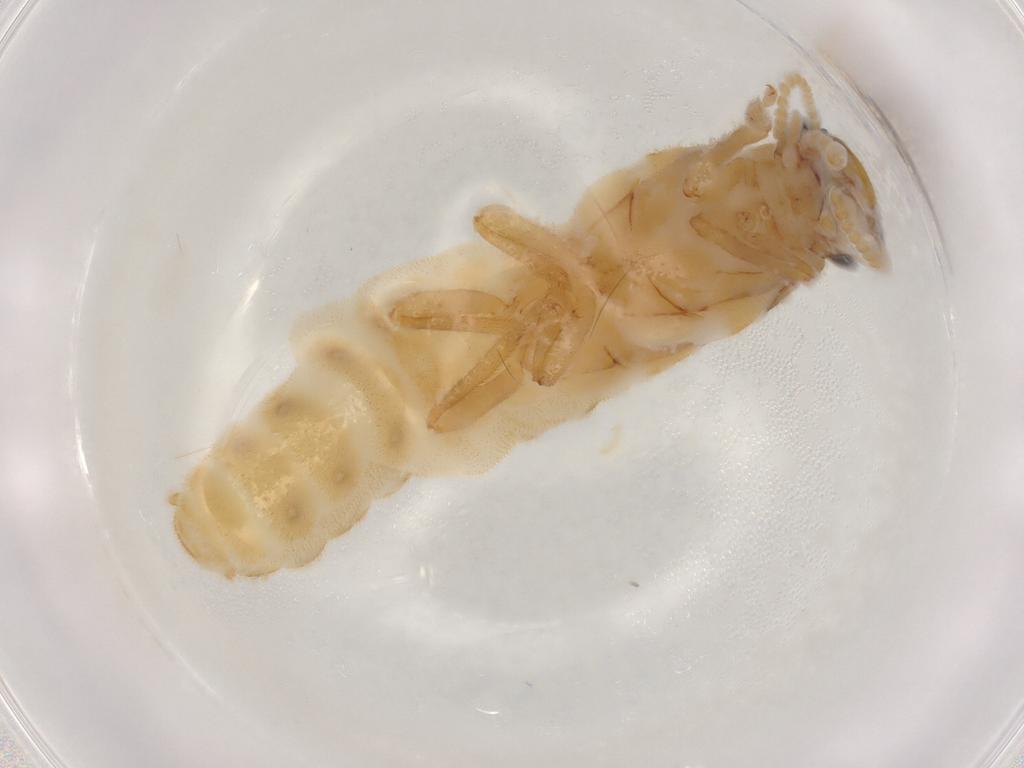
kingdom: Animalia
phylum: Arthropoda
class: Insecta
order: Blattodea
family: Termitidae
